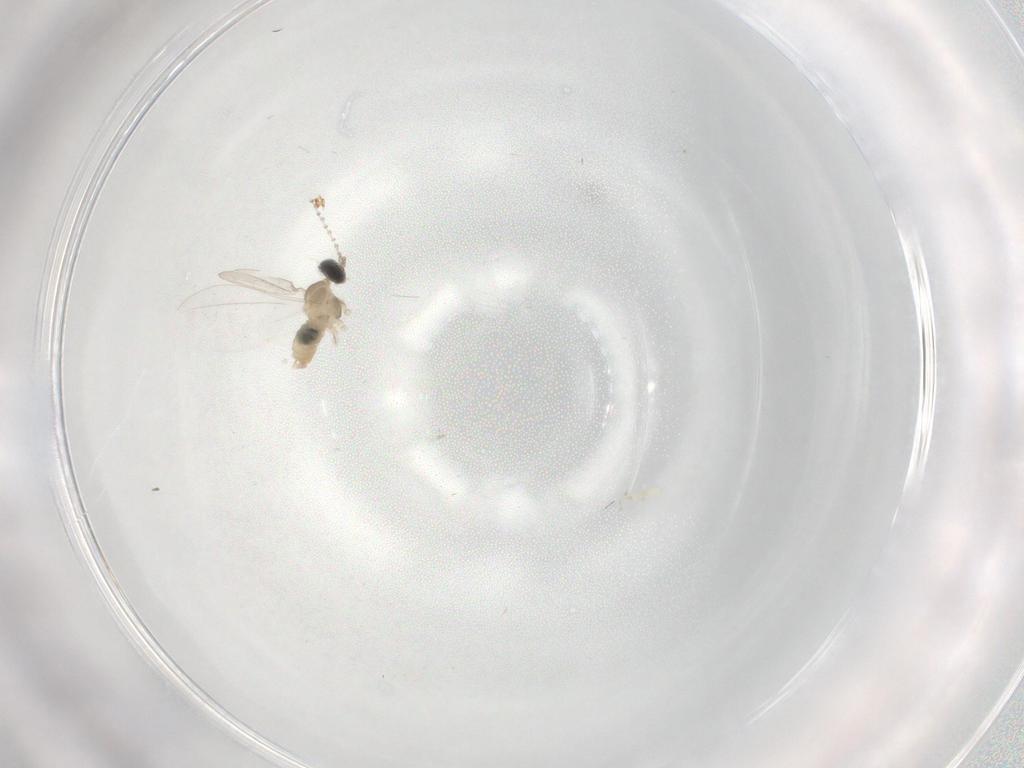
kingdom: Animalia
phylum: Arthropoda
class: Insecta
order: Diptera
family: Cecidomyiidae
